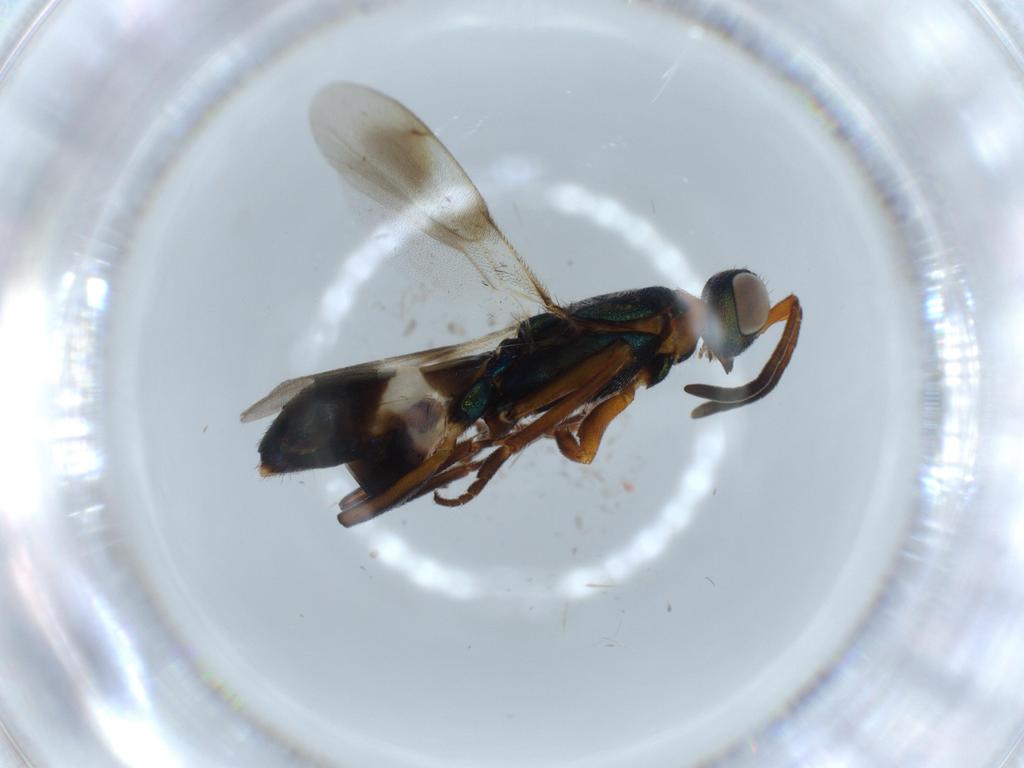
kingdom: Animalia
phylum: Arthropoda
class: Insecta
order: Hymenoptera
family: Eupelmidae
